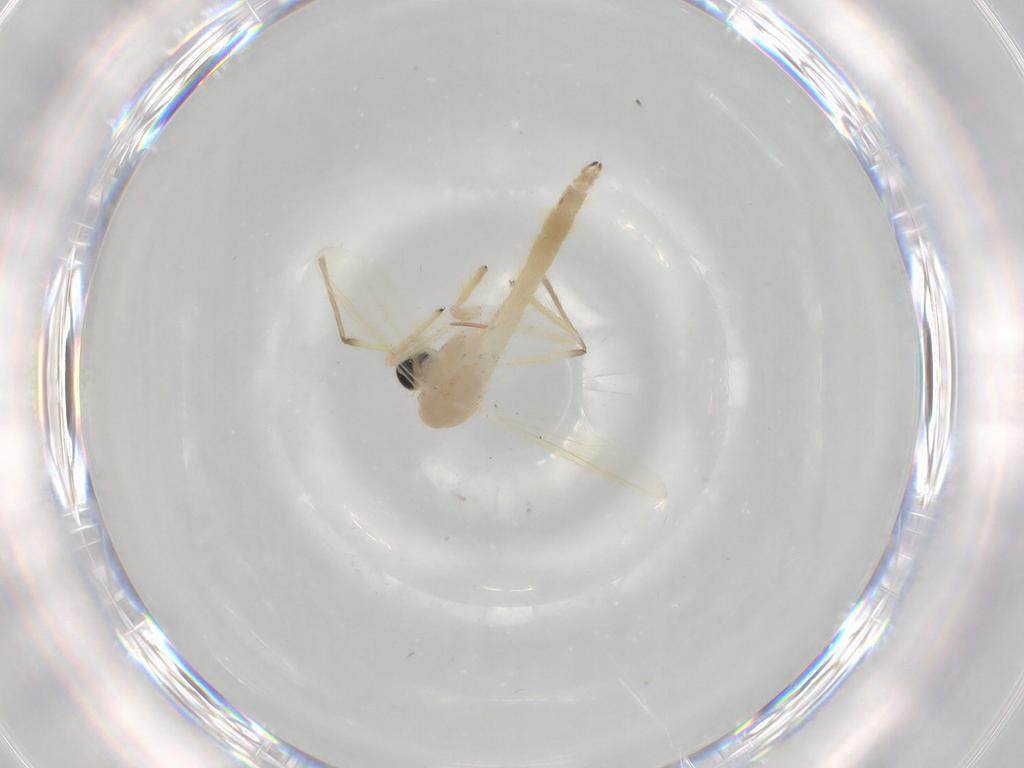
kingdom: Animalia
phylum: Arthropoda
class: Insecta
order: Diptera
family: Chironomidae
